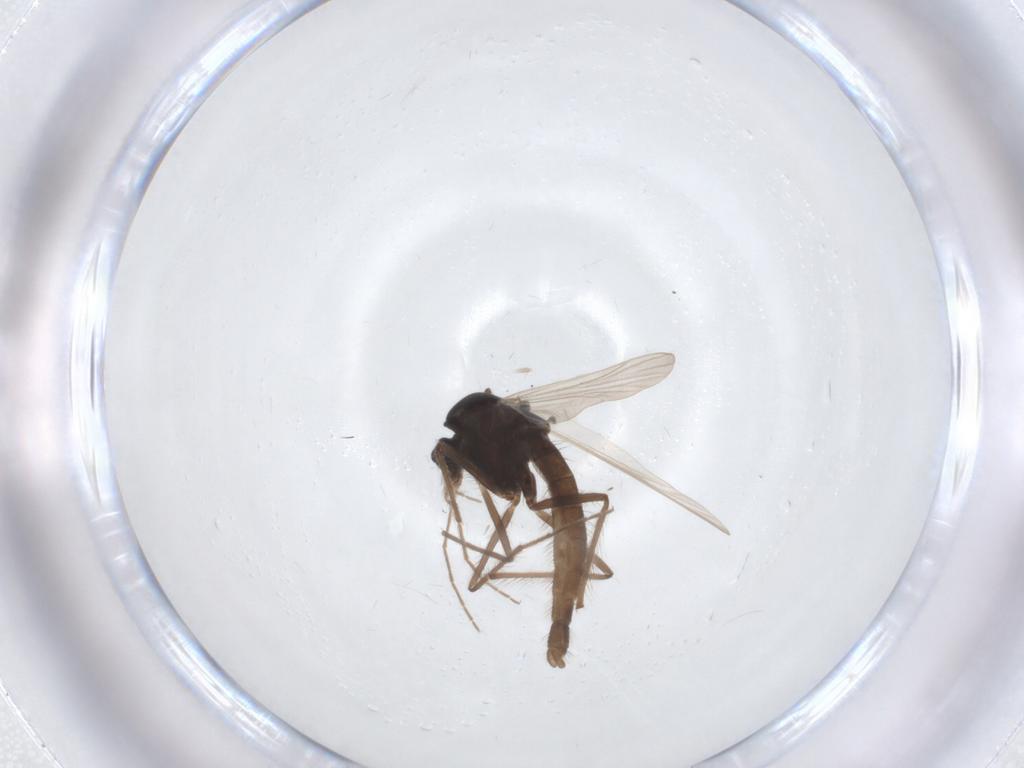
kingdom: Animalia
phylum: Arthropoda
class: Insecta
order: Diptera
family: Chironomidae
